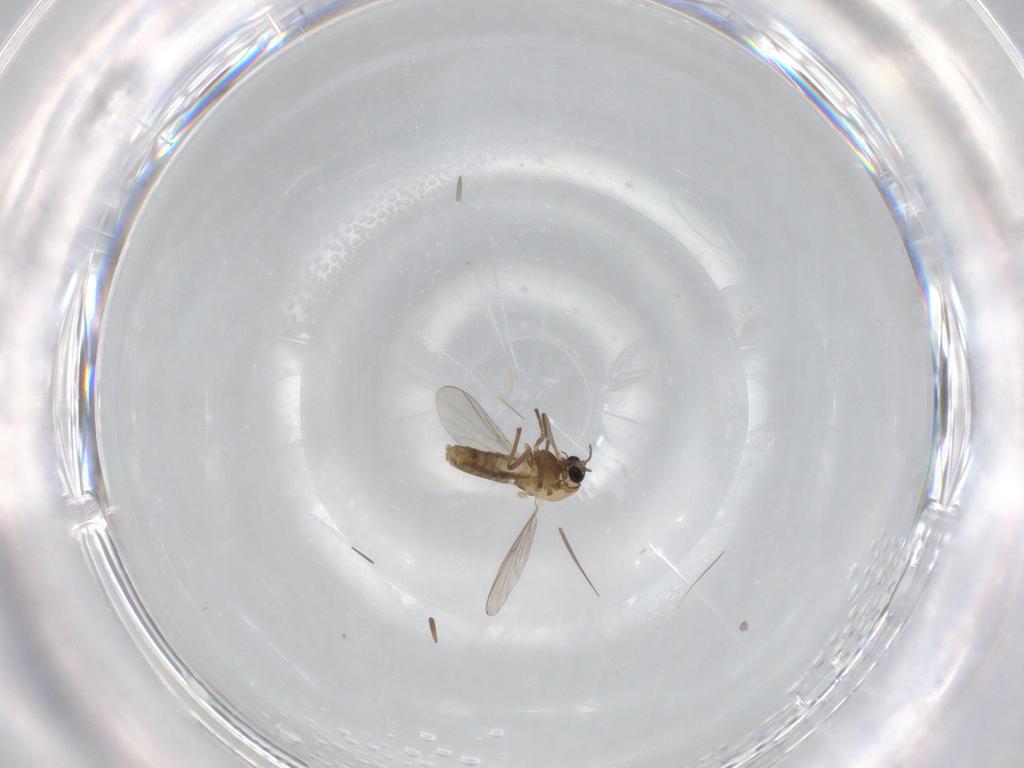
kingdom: Animalia
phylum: Arthropoda
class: Insecta
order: Diptera
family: Chironomidae
